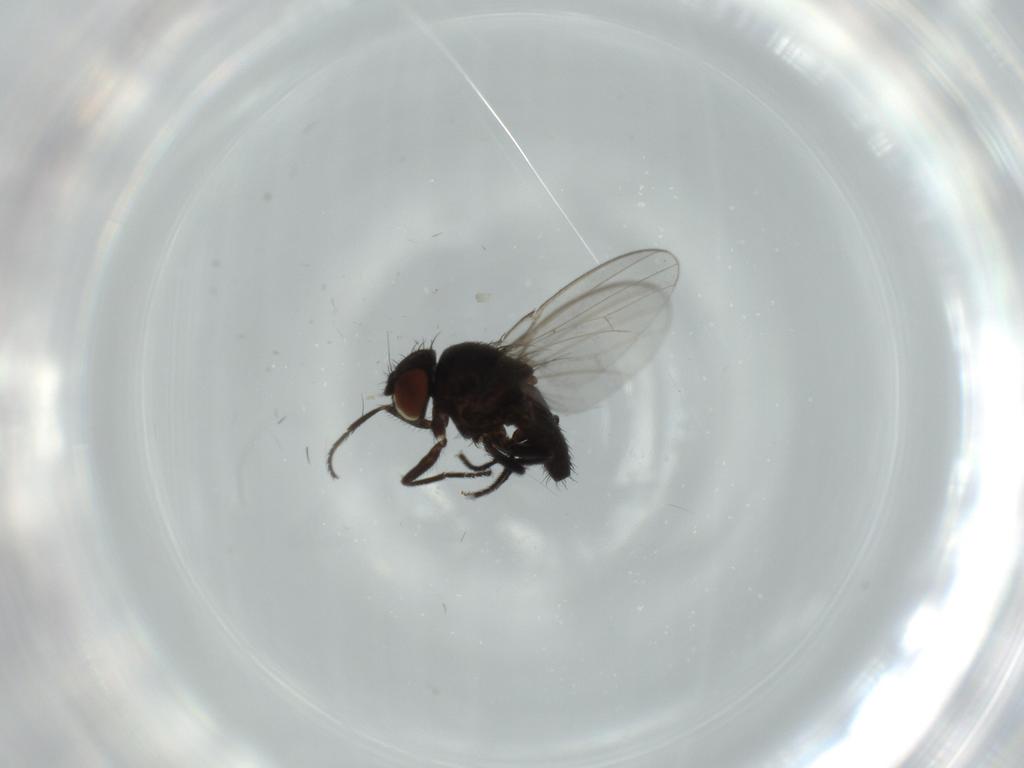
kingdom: Animalia
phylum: Arthropoda
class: Insecta
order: Diptera
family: Milichiidae
